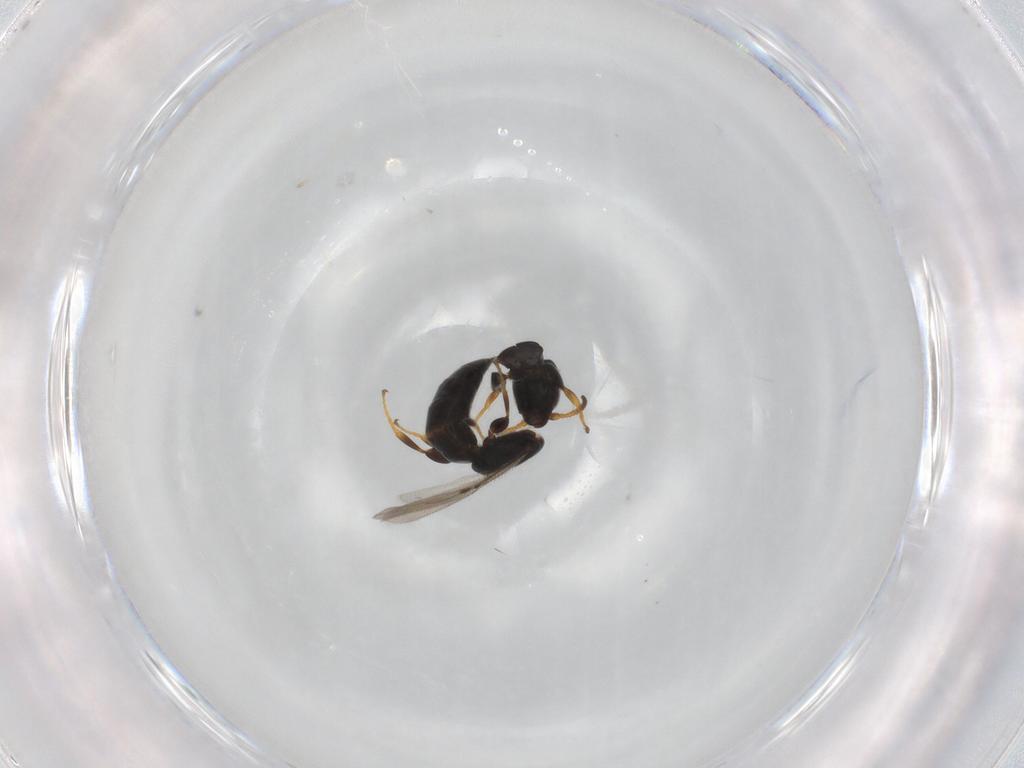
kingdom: Animalia
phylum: Arthropoda
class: Insecta
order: Hymenoptera
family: Bethylidae
